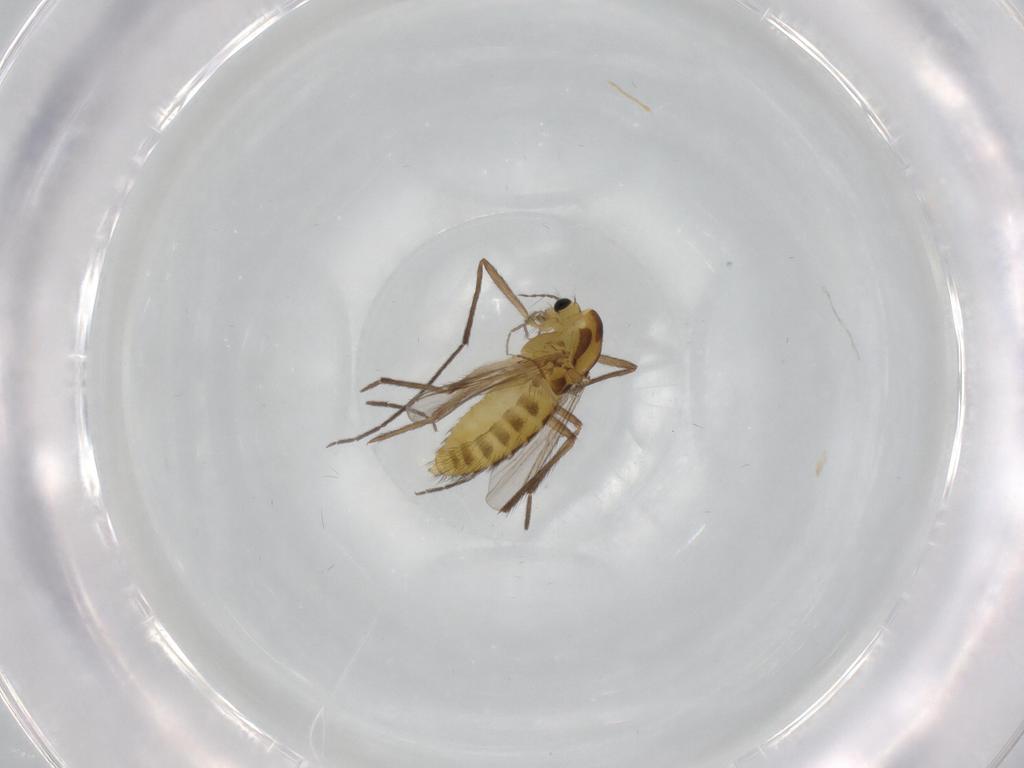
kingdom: Animalia
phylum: Arthropoda
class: Insecta
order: Diptera
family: Chironomidae
